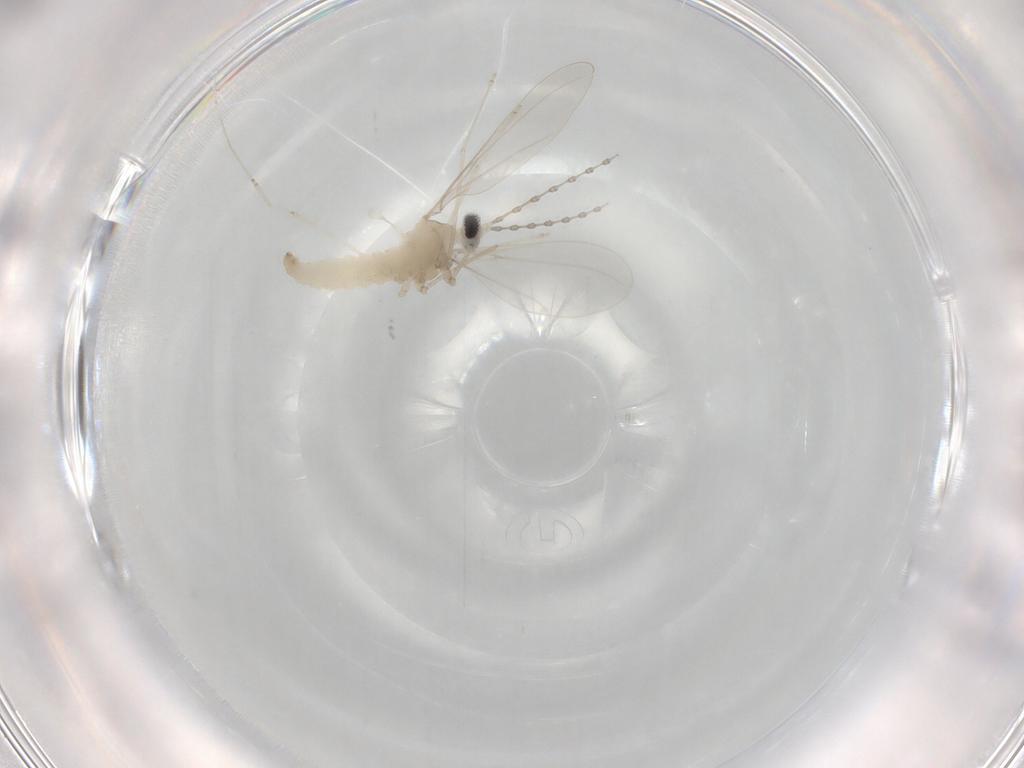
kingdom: Animalia
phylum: Arthropoda
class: Insecta
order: Diptera
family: Cecidomyiidae
